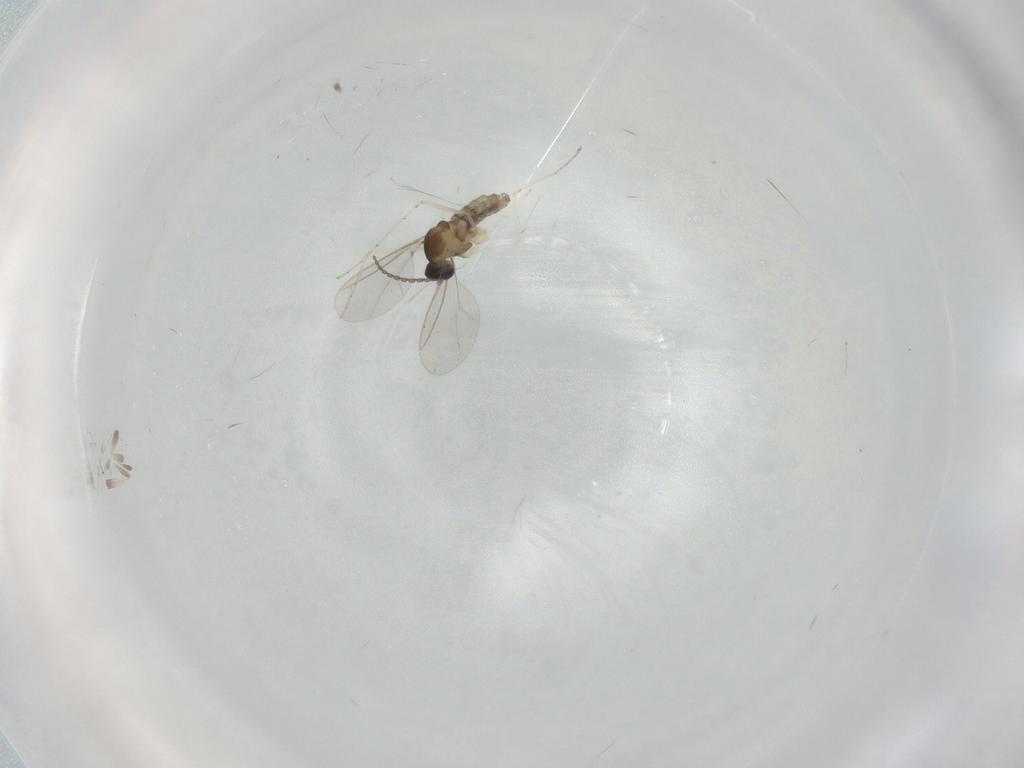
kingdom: Animalia
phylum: Arthropoda
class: Insecta
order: Diptera
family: Cecidomyiidae
